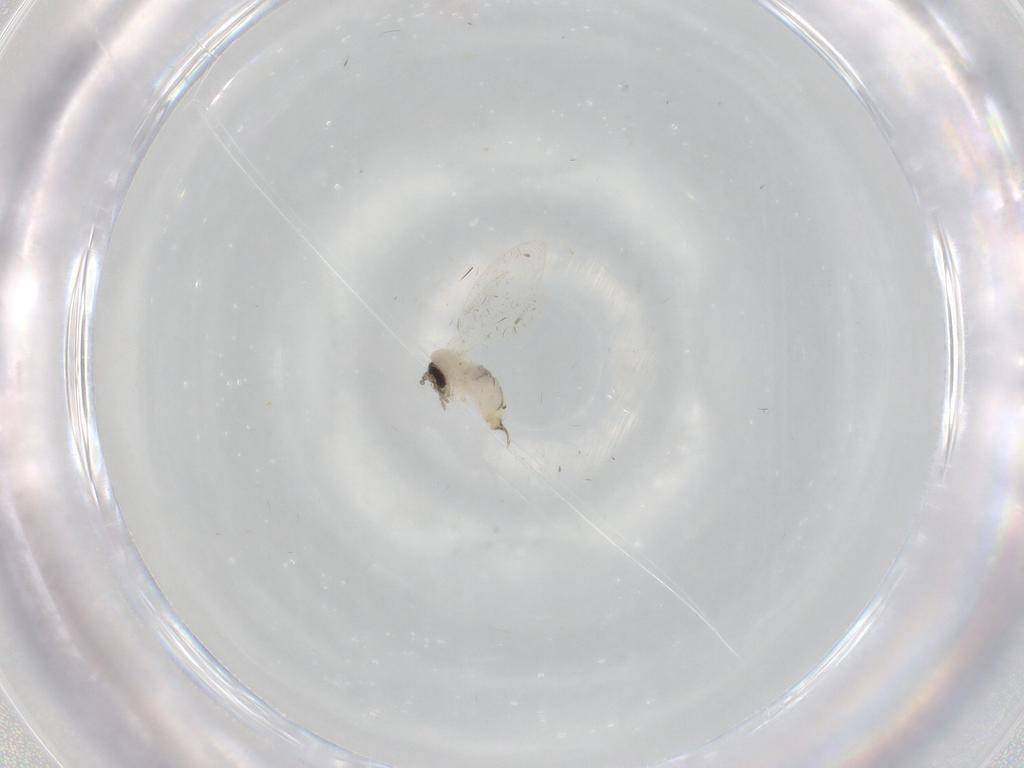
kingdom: Animalia
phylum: Arthropoda
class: Insecta
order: Diptera
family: Psychodidae
